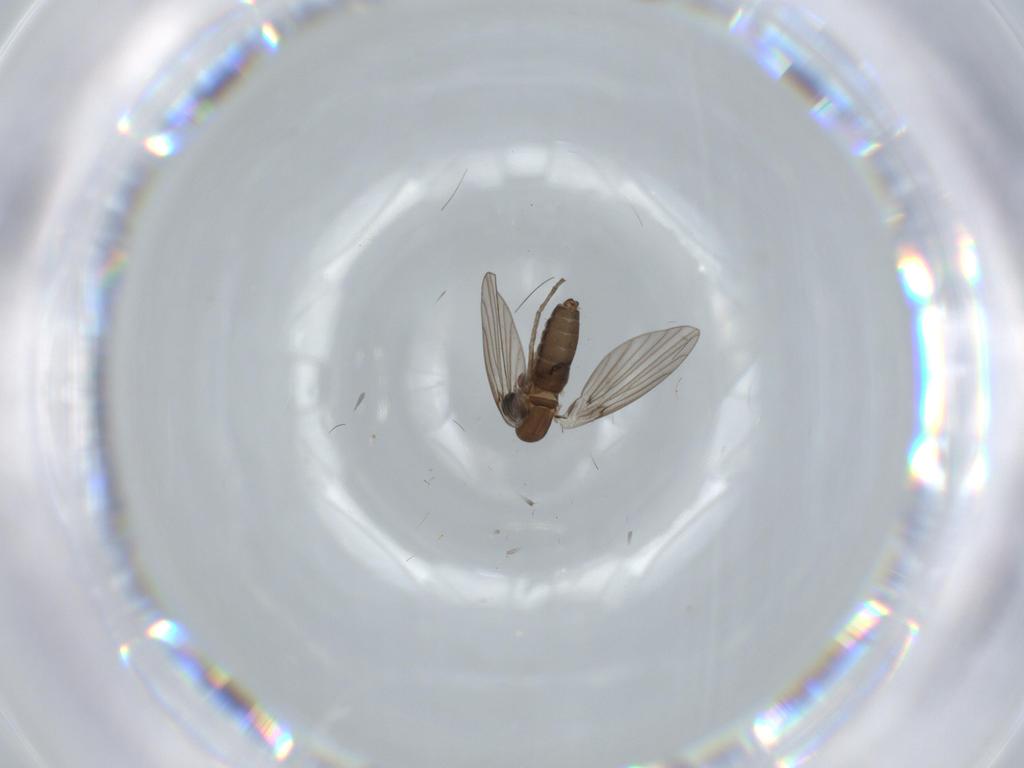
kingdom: Animalia
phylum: Arthropoda
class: Insecta
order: Diptera
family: Psychodidae
